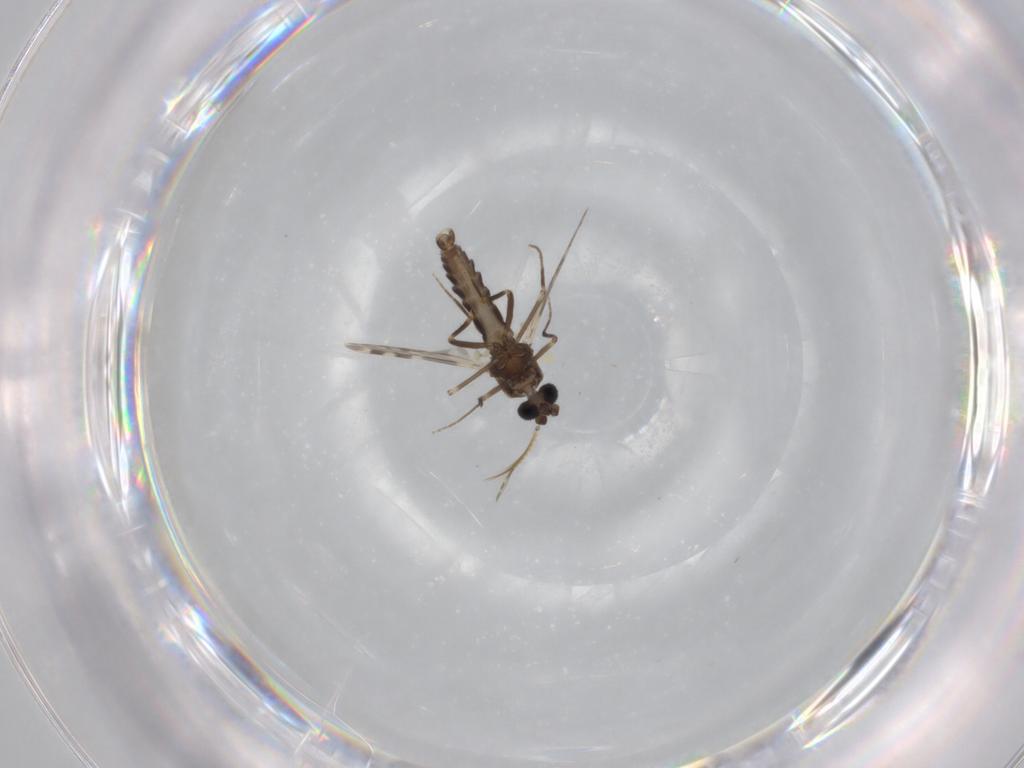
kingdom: Animalia
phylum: Arthropoda
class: Insecta
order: Diptera
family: Ceratopogonidae
